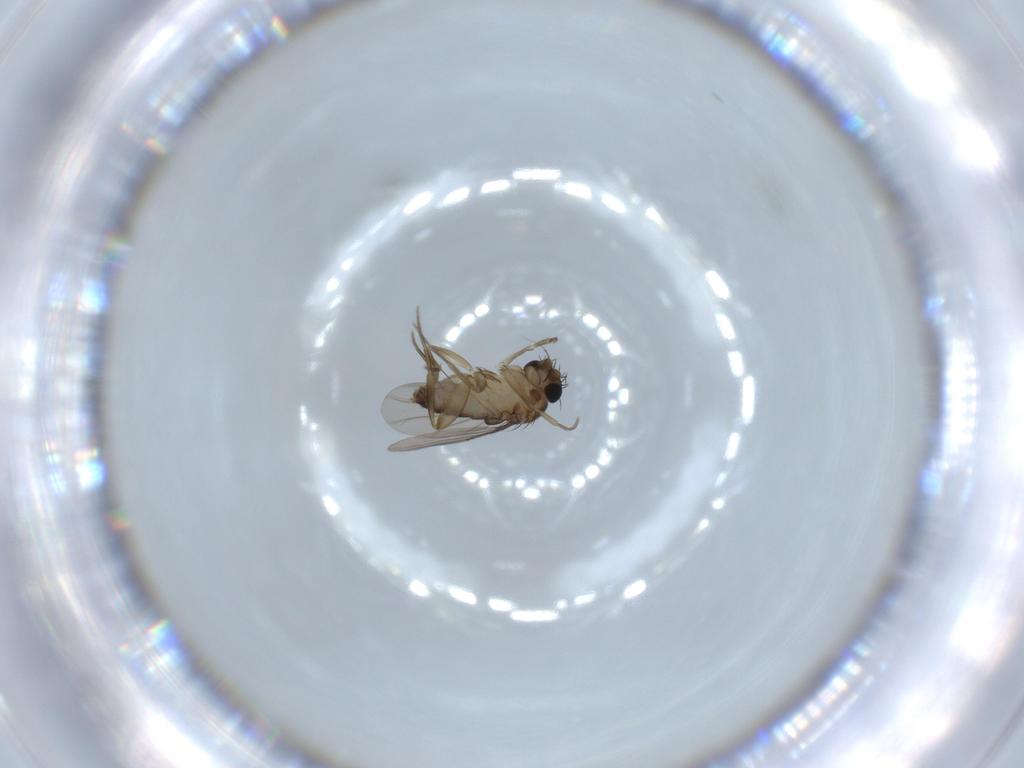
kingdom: Animalia
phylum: Arthropoda
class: Insecta
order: Diptera
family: Phoridae
